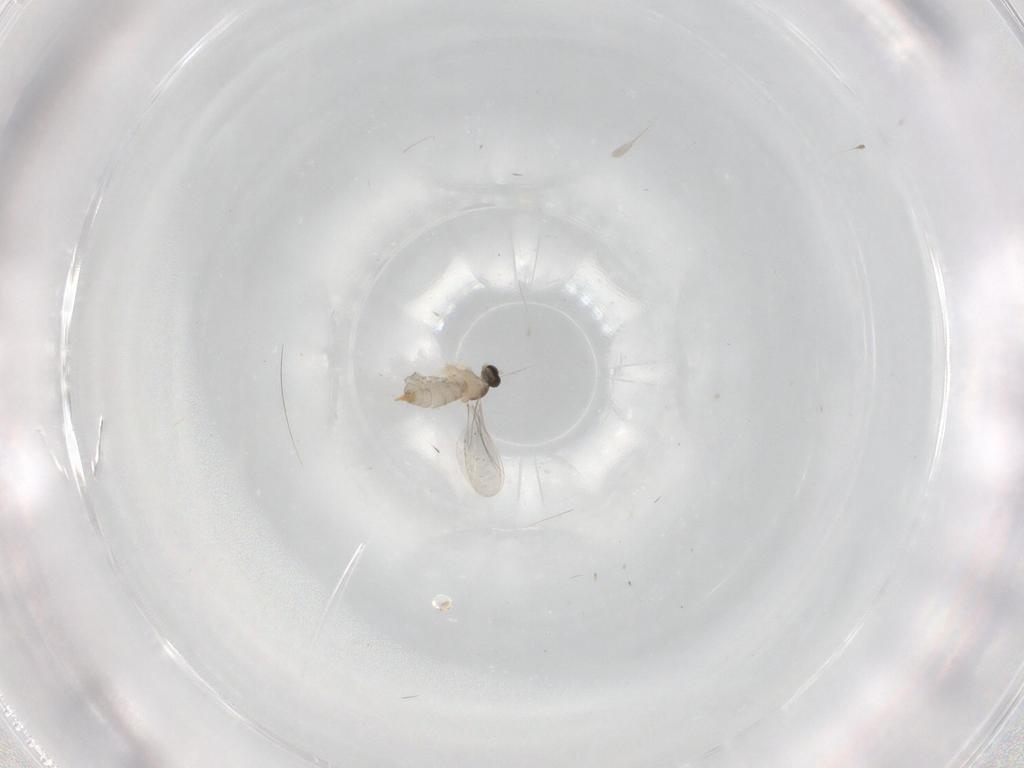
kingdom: Animalia
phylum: Arthropoda
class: Insecta
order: Diptera
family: Cecidomyiidae
